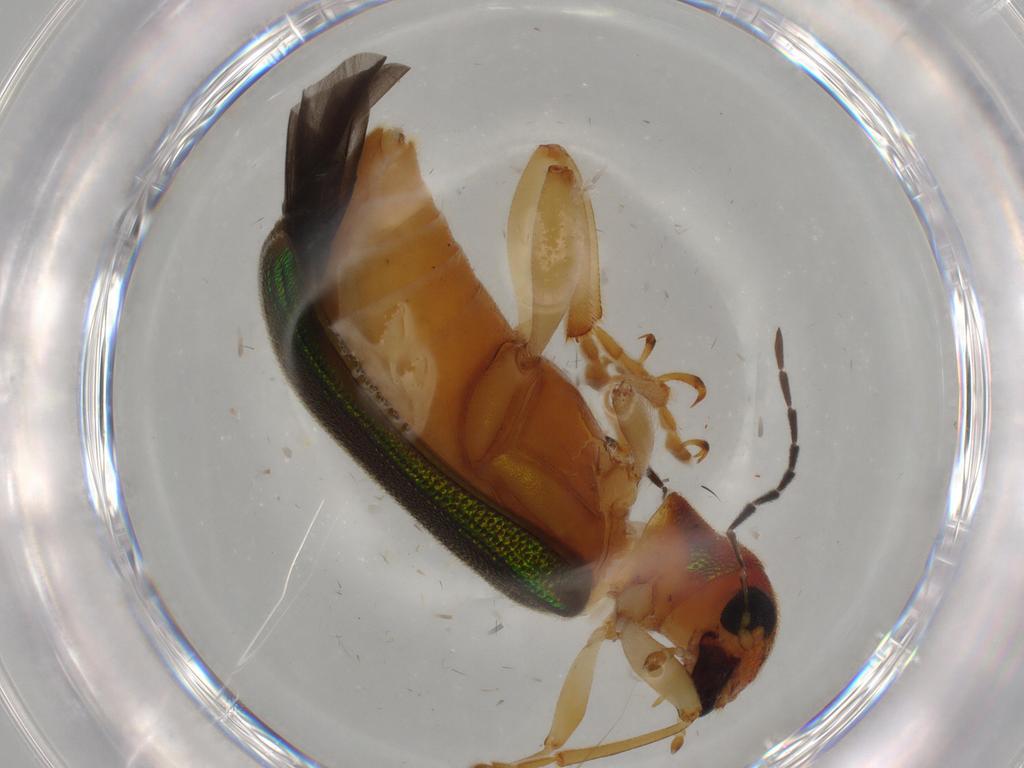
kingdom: Animalia
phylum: Arthropoda
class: Insecta
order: Coleoptera
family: Chrysomelidae
